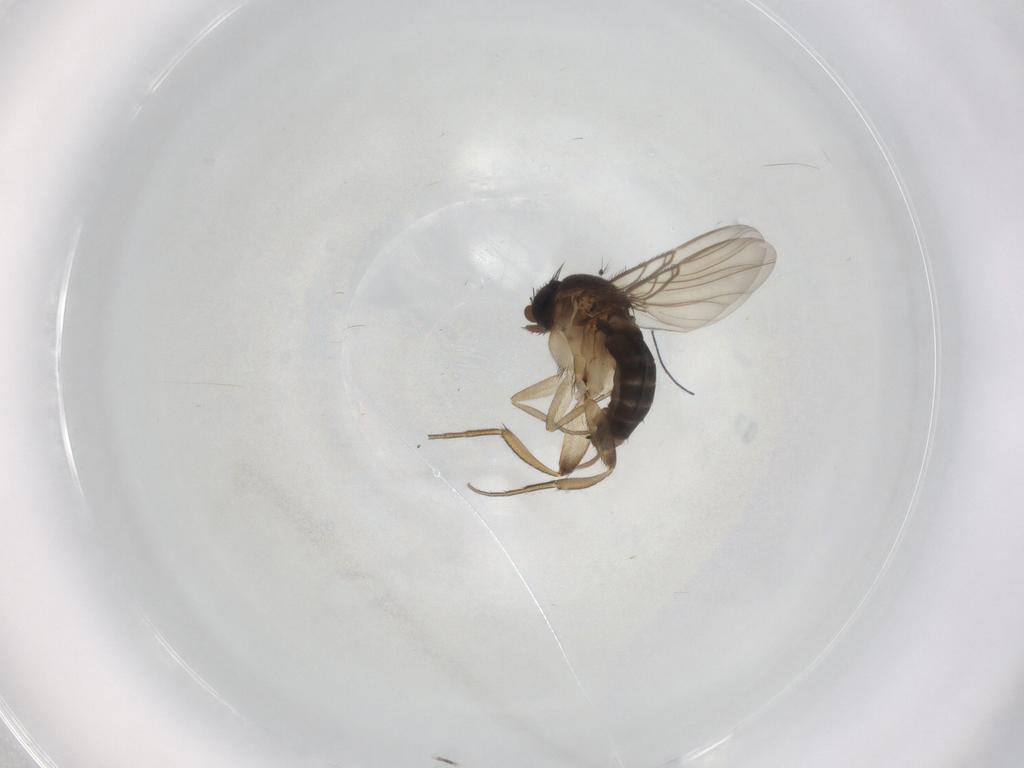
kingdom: Animalia
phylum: Arthropoda
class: Insecta
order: Diptera
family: Phoridae
